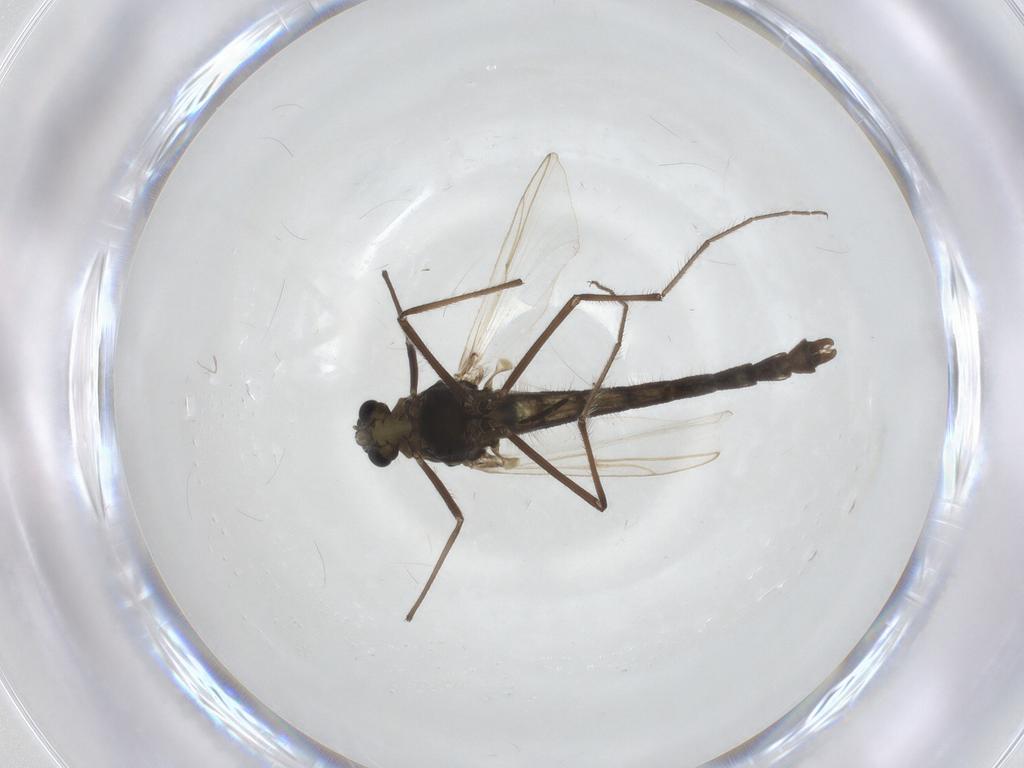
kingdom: Animalia
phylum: Arthropoda
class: Insecta
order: Diptera
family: Chironomidae
